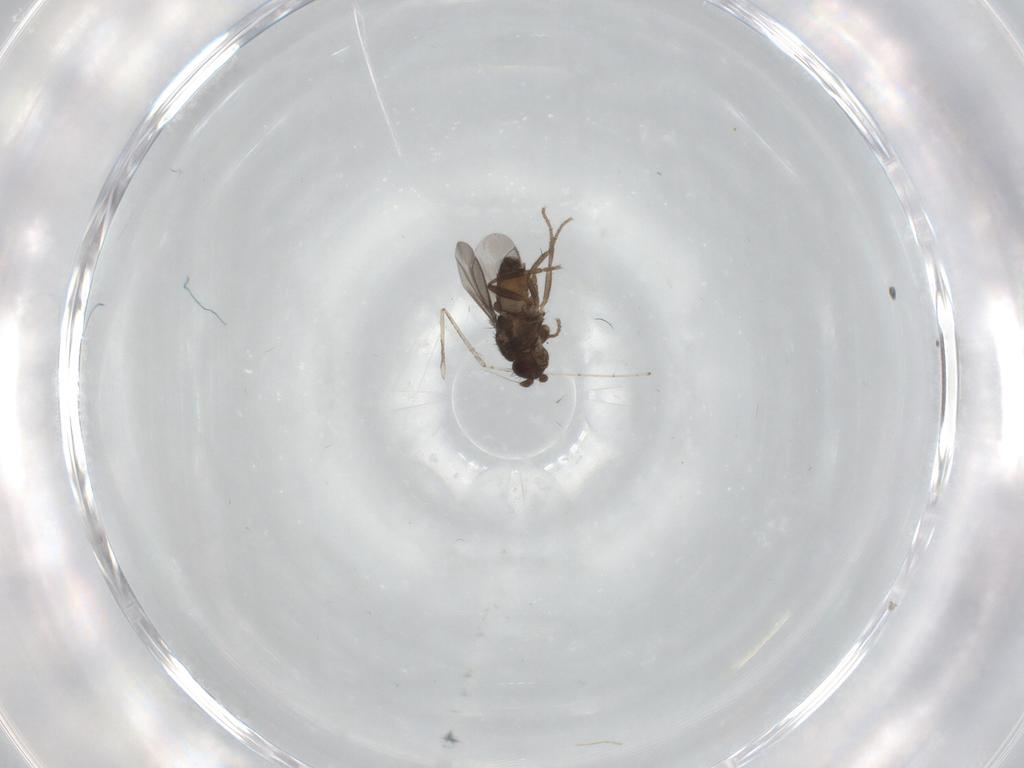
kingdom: Animalia
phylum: Arthropoda
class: Insecta
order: Diptera
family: Sphaeroceridae
